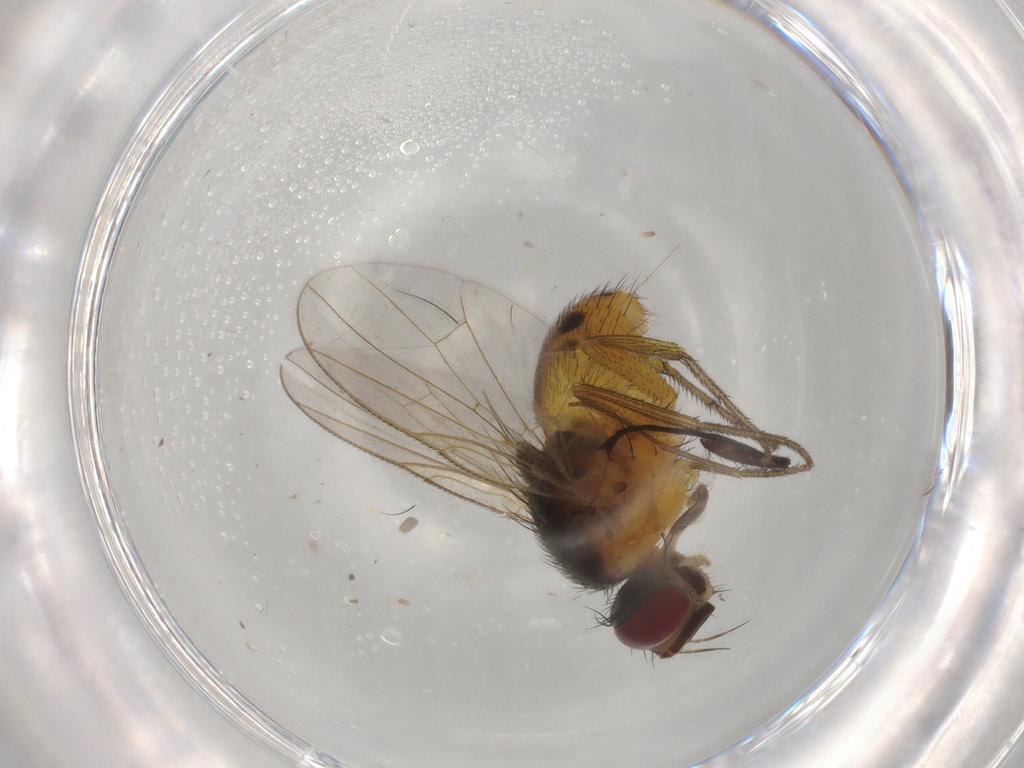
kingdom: Animalia
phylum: Arthropoda
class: Insecta
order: Diptera
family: Muscidae
